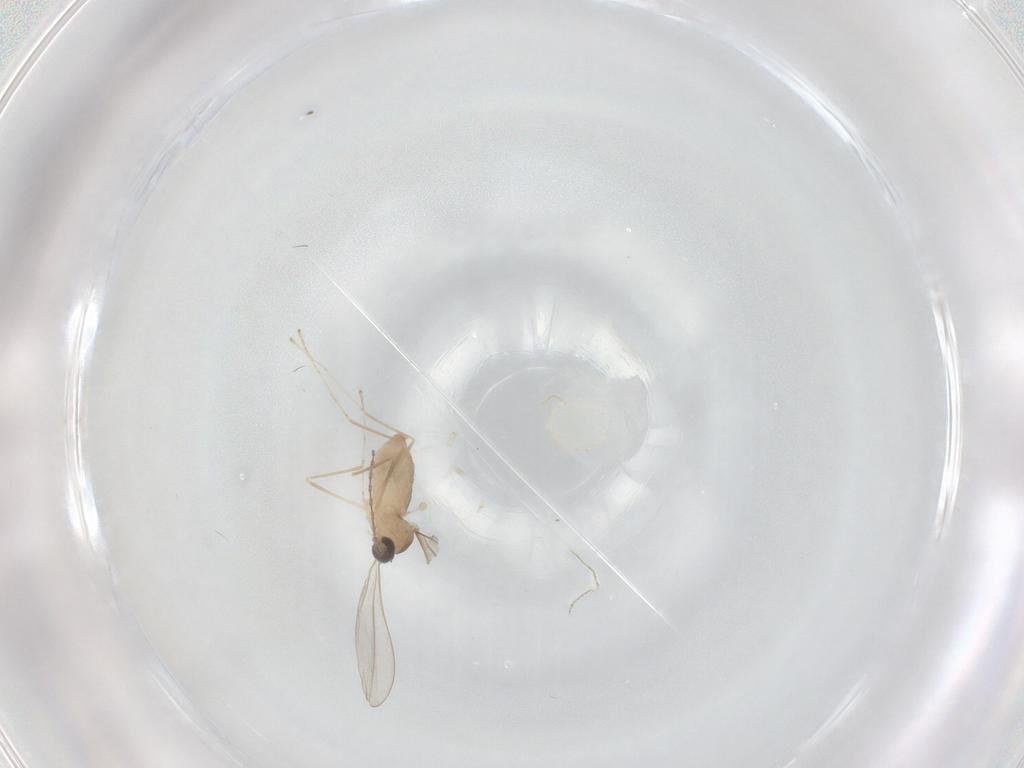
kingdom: Animalia
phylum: Arthropoda
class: Insecta
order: Diptera
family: Cecidomyiidae
